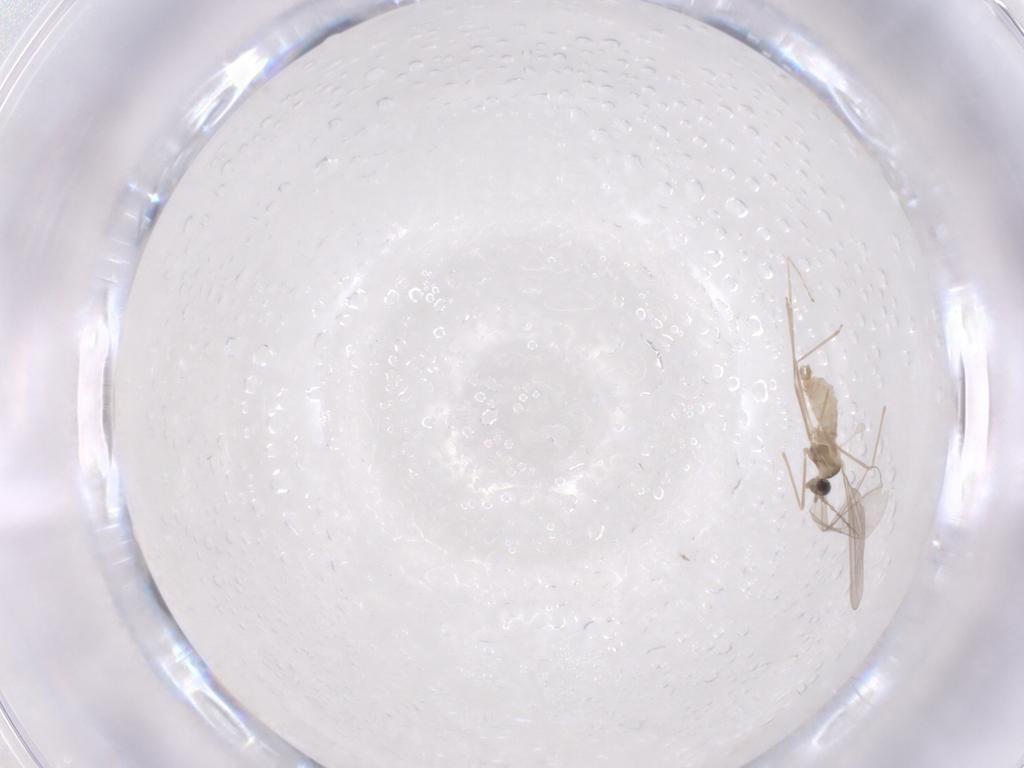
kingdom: Animalia
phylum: Arthropoda
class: Insecta
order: Diptera
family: Cecidomyiidae
